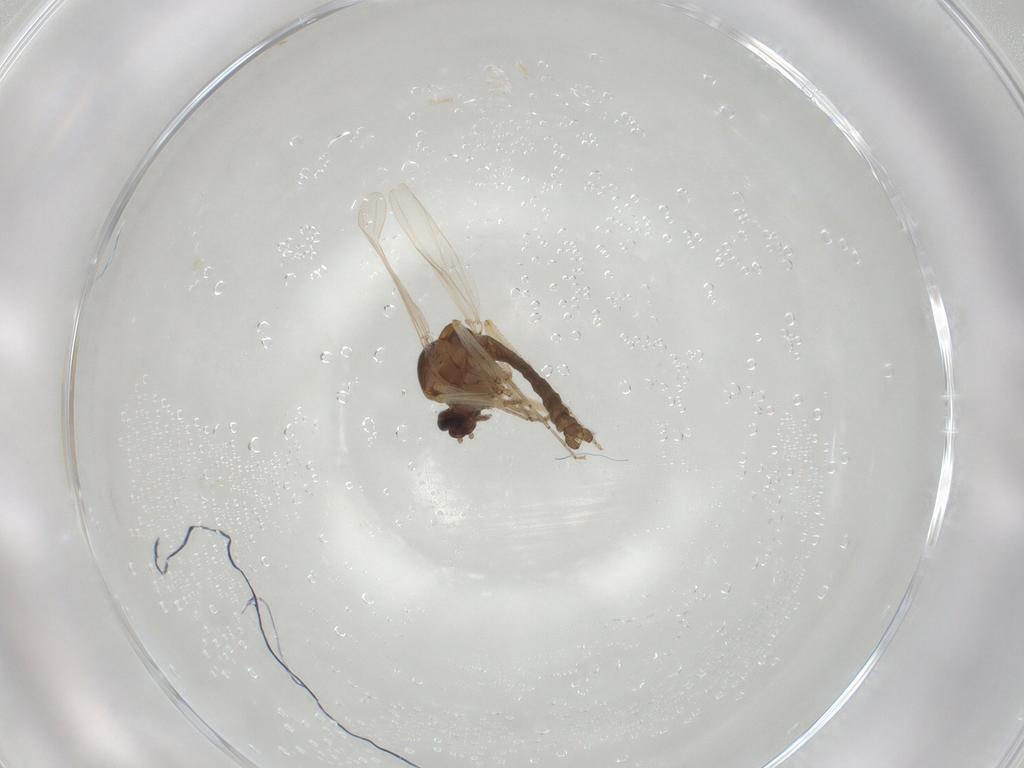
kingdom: Animalia
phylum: Arthropoda
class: Insecta
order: Diptera
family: Ceratopogonidae
